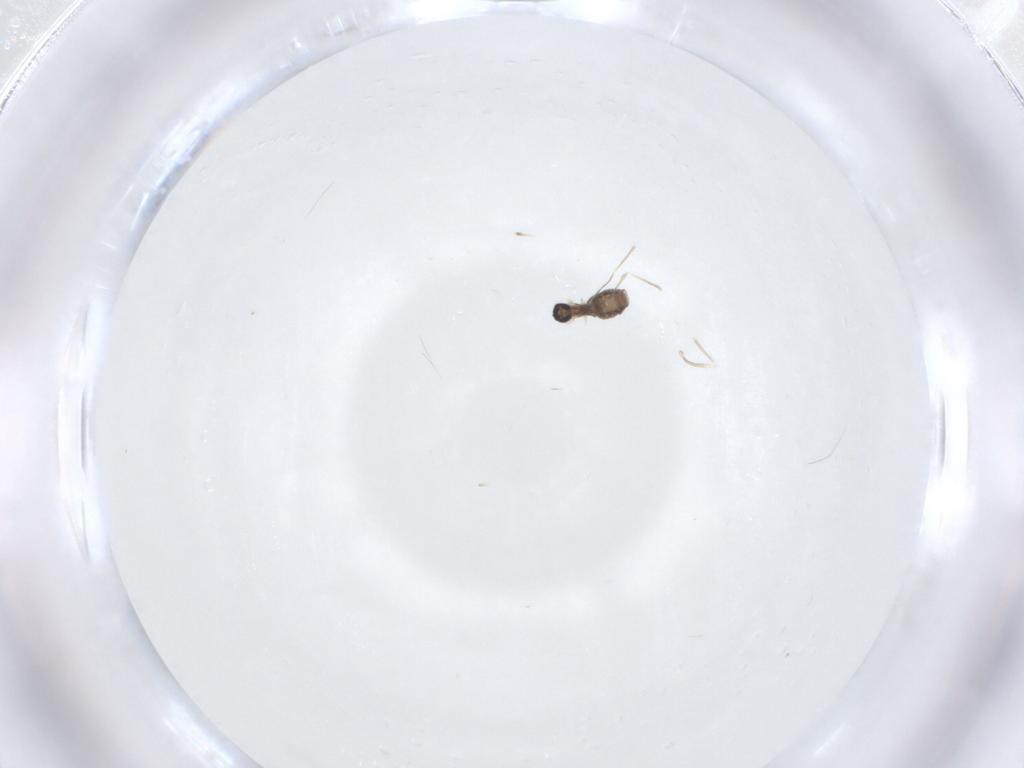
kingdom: Animalia
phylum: Arthropoda
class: Insecta
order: Diptera
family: Cecidomyiidae
